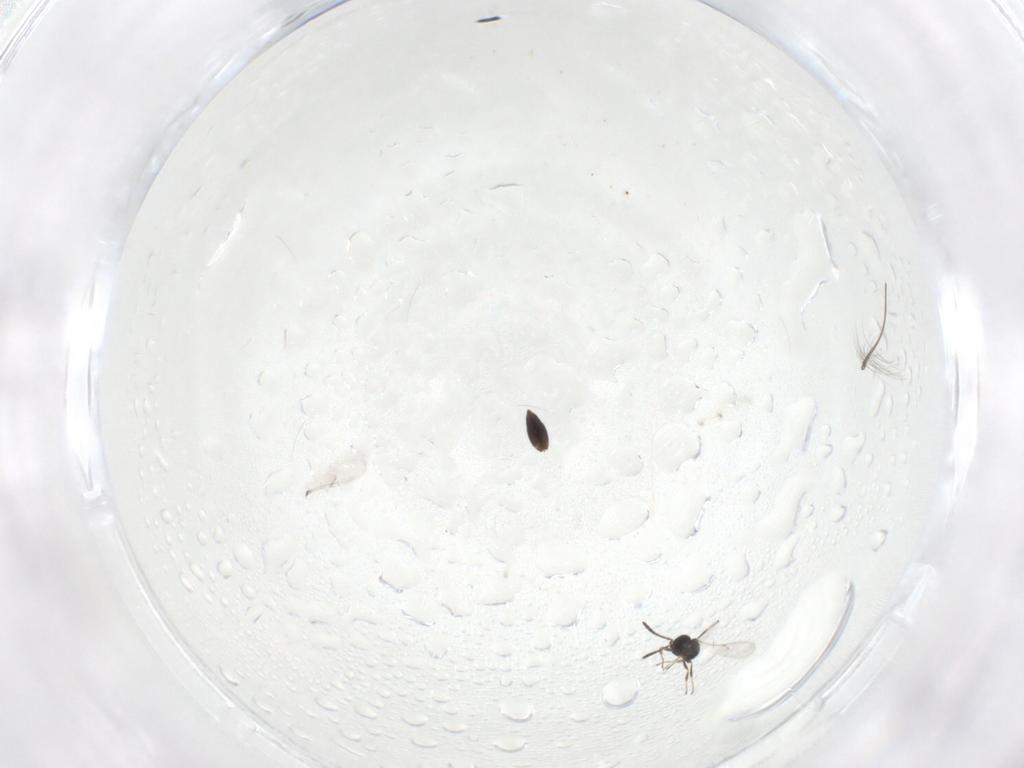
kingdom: Animalia
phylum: Arthropoda
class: Insecta
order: Hymenoptera
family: Scelionidae
